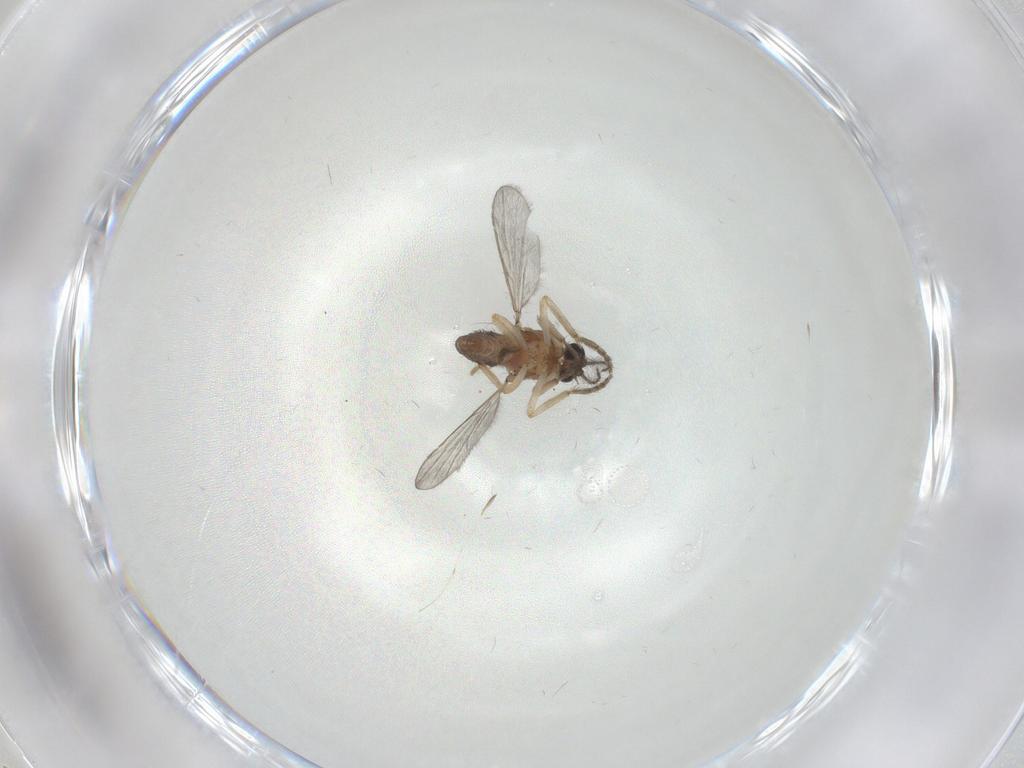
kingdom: Animalia
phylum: Arthropoda
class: Insecta
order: Diptera
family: Ceratopogonidae
